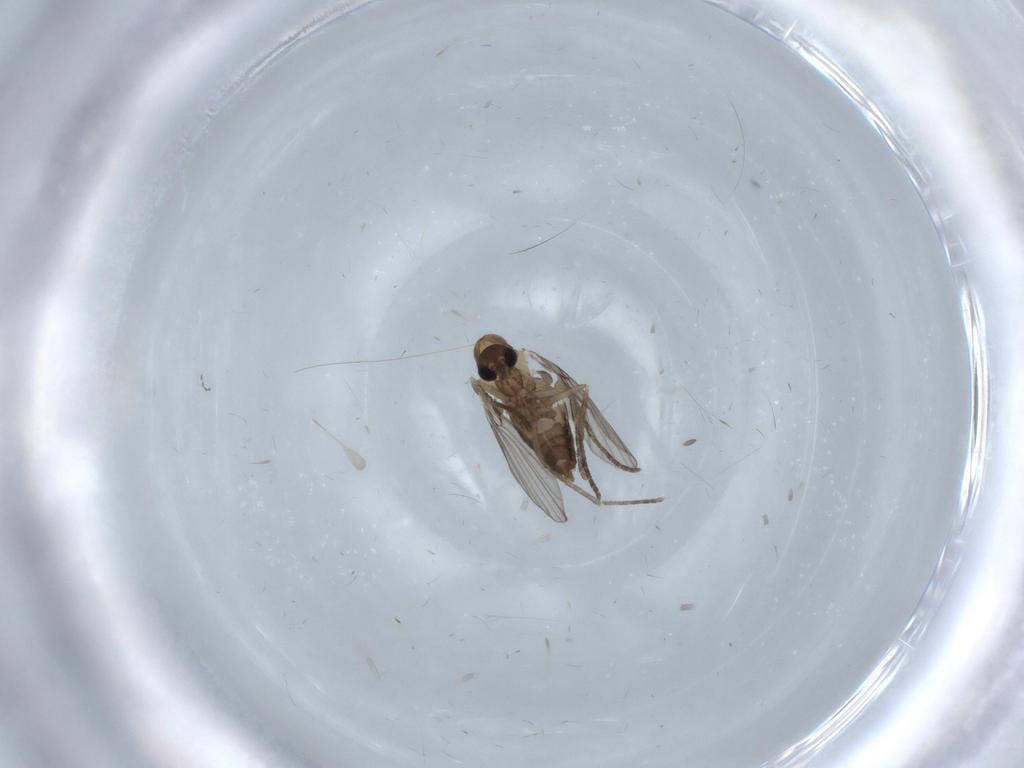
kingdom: Animalia
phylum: Arthropoda
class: Insecta
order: Diptera
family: Cecidomyiidae
